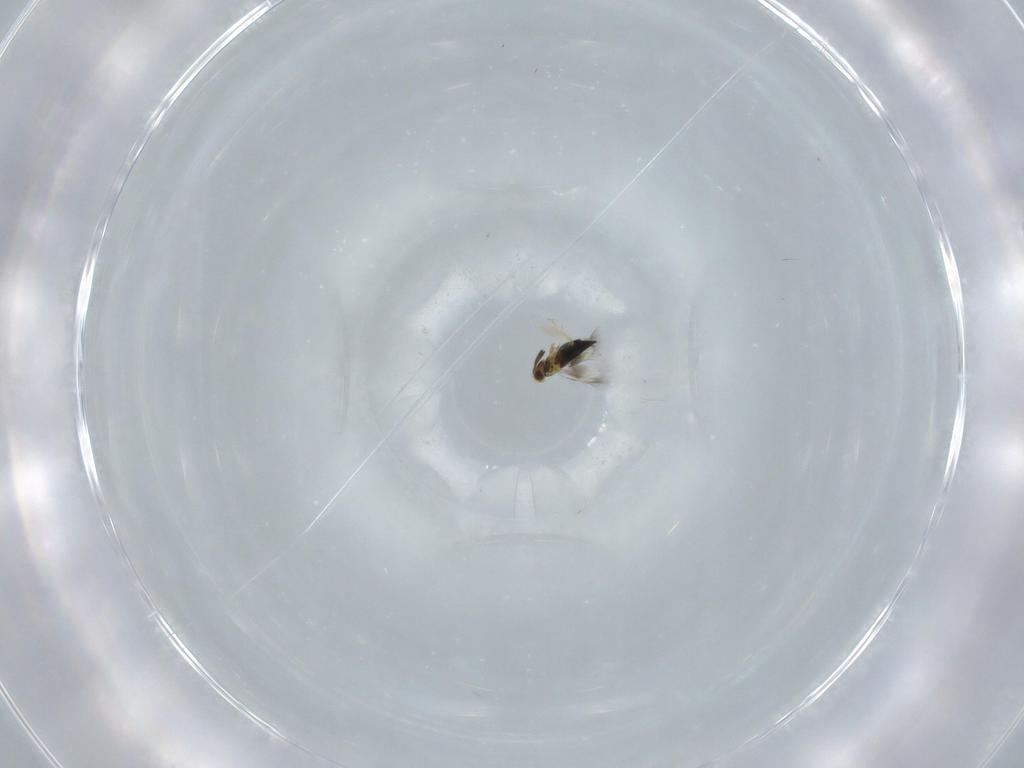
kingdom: Animalia
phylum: Arthropoda
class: Insecta
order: Hymenoptera
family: Signiphoridae
